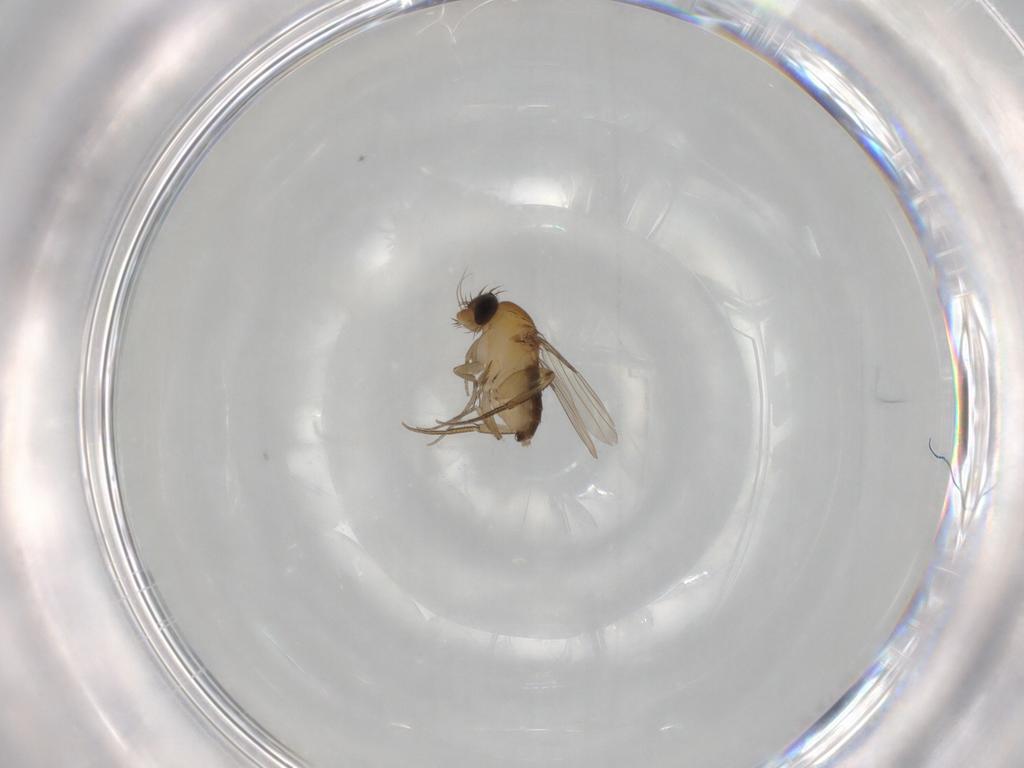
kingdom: Animalia
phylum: Arthropoda
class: Insecta
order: Diptera
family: Phoridae
